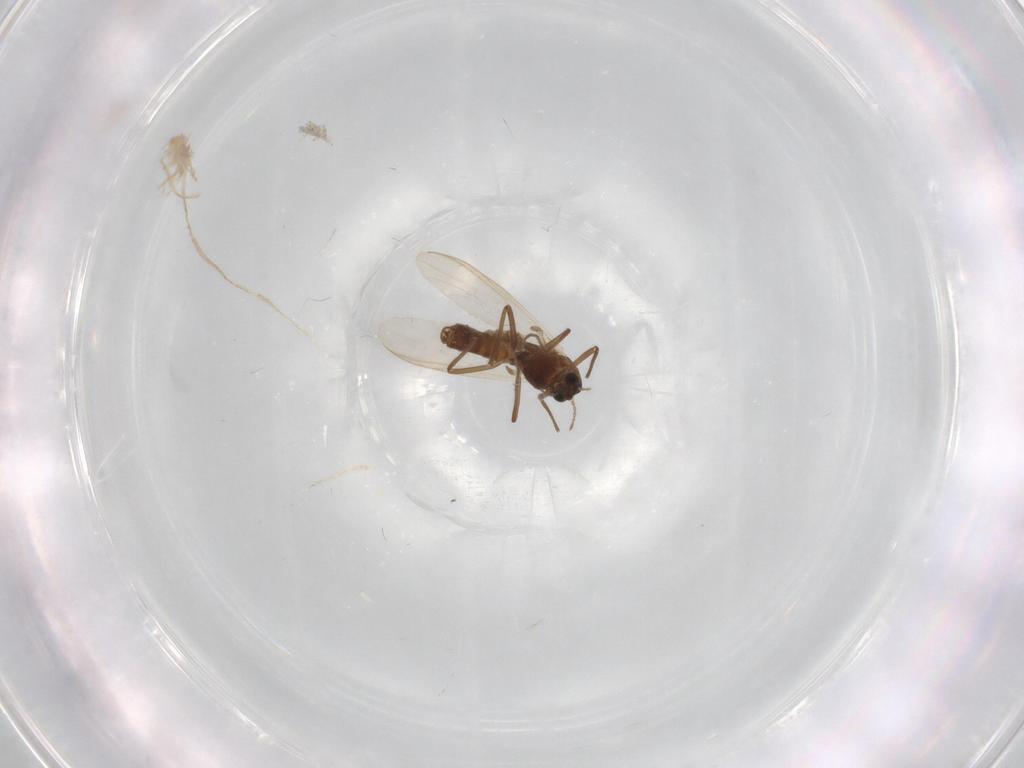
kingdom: Animalia
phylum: Arthropoda
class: Insecta
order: Diptera
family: Chironomidae
